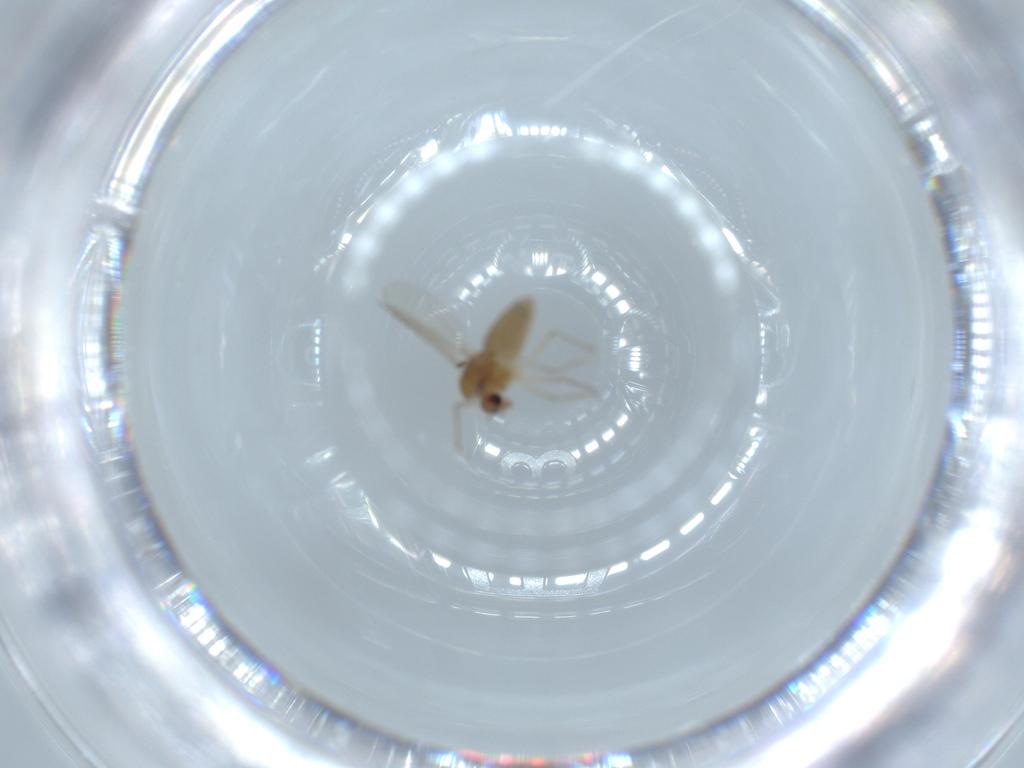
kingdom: Animalia
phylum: Arthropoda
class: Insecta
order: Diptera
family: Chironomidae
